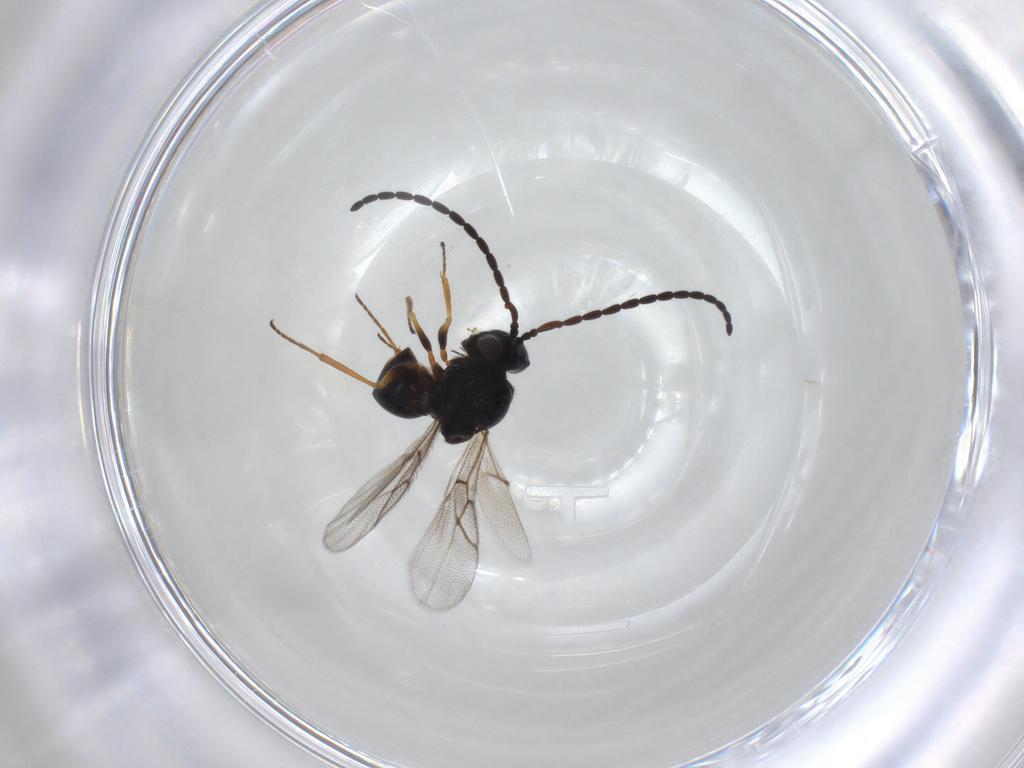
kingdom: Animalia
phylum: Arthropoda
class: Insecta
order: Hymenoptera
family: Figitidae
